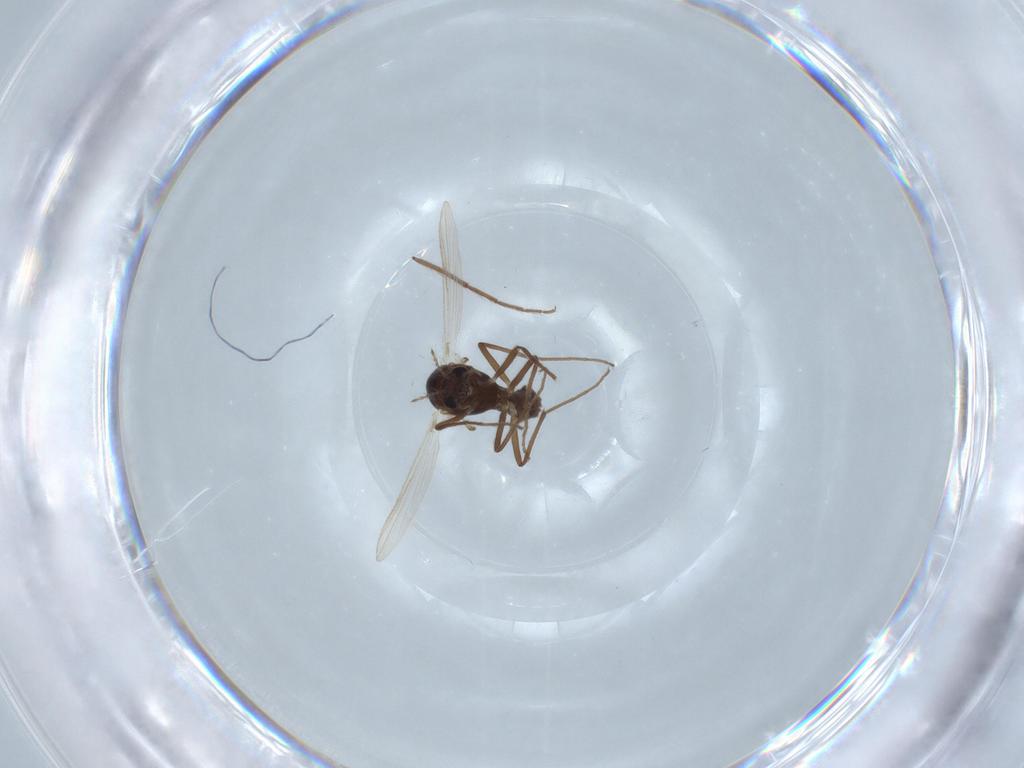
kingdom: Animalia
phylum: Arthropoda
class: Insecta
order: Diptera
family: Chironomidae
